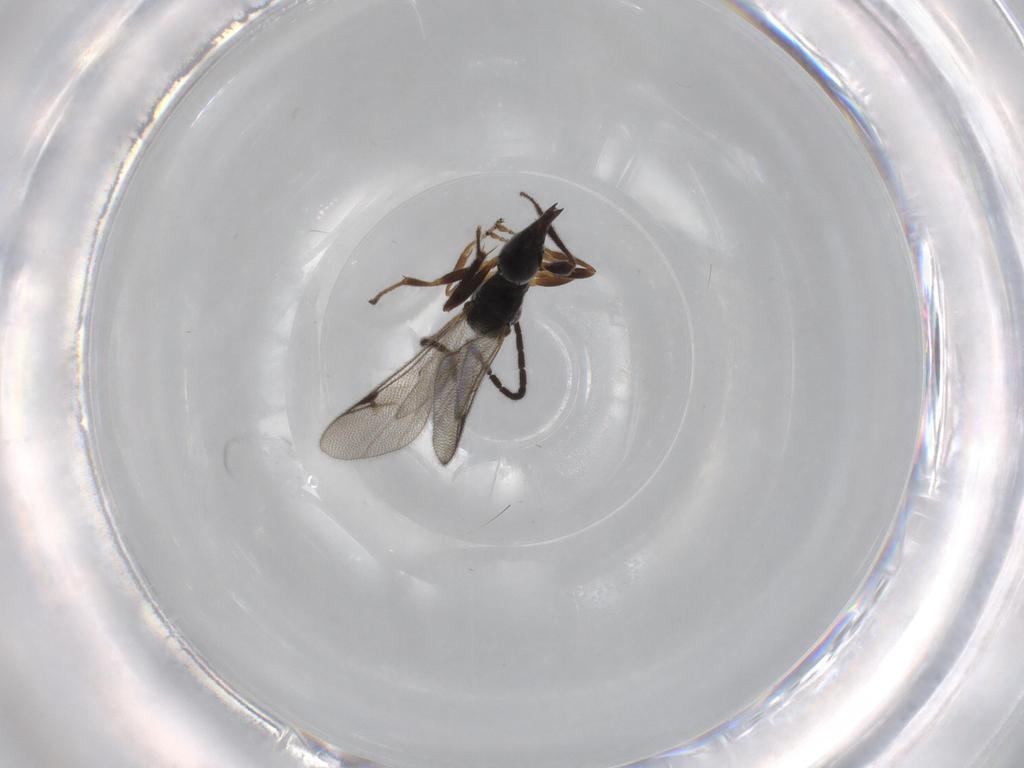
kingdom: Animalia
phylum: Arthropoda
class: Insecta
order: Hymenoptera
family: Proctotrupidae
